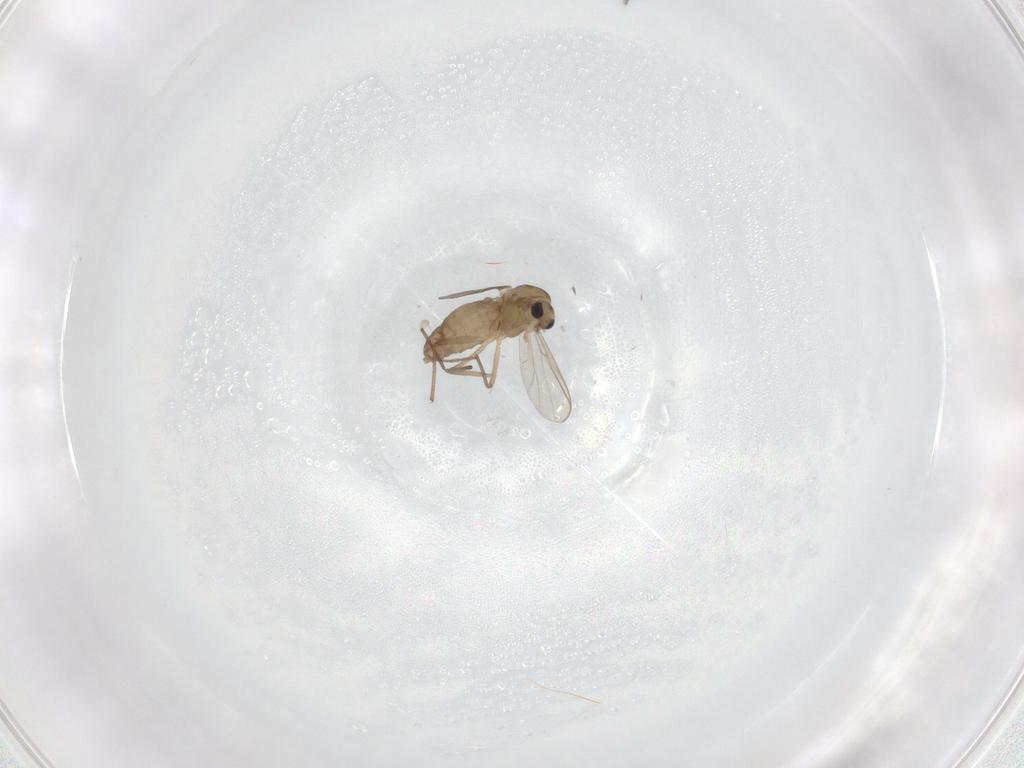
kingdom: Animalia
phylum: Arthropoda
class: Insecta
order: Diptera
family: Chironomidae
